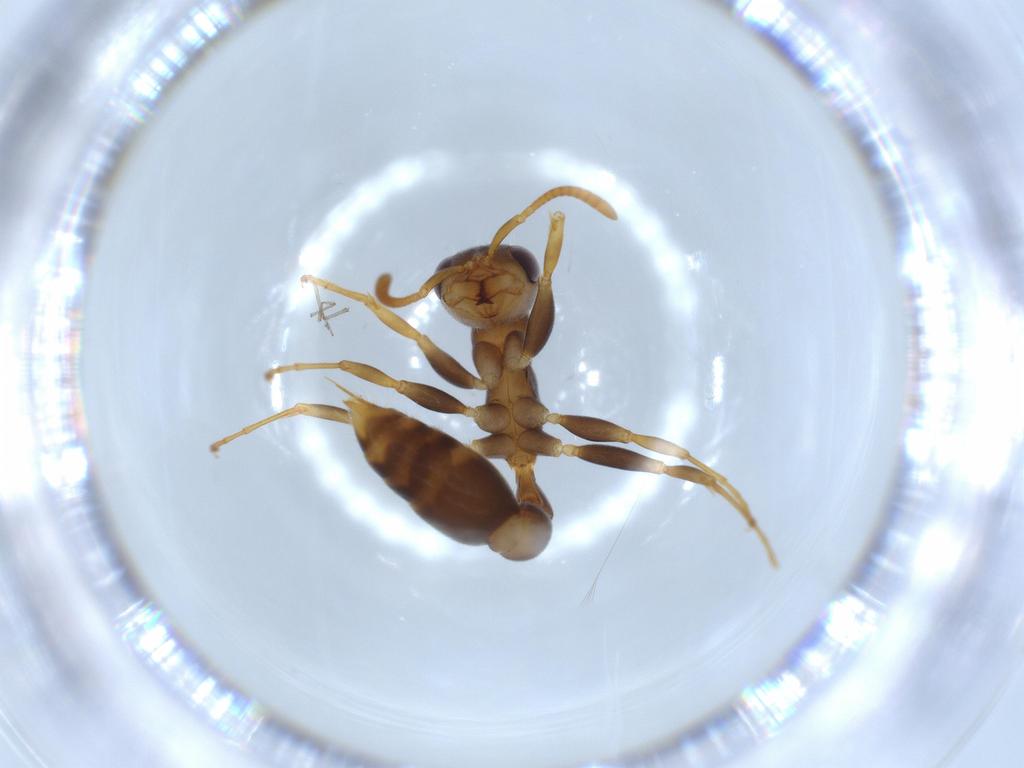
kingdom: Animalia
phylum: Arthropoda
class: Insecta
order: Hymenoptera
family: Formicidae
